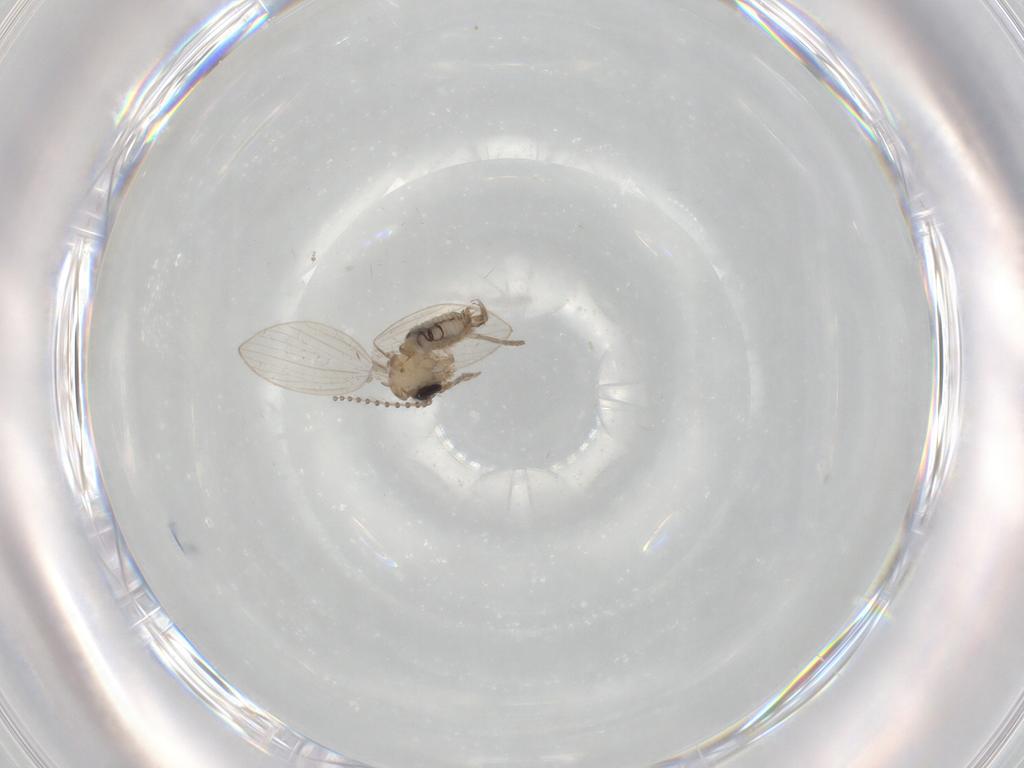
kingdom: Animalia
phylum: Arthropoda
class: Insecta
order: Diptera
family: Psychodidae
